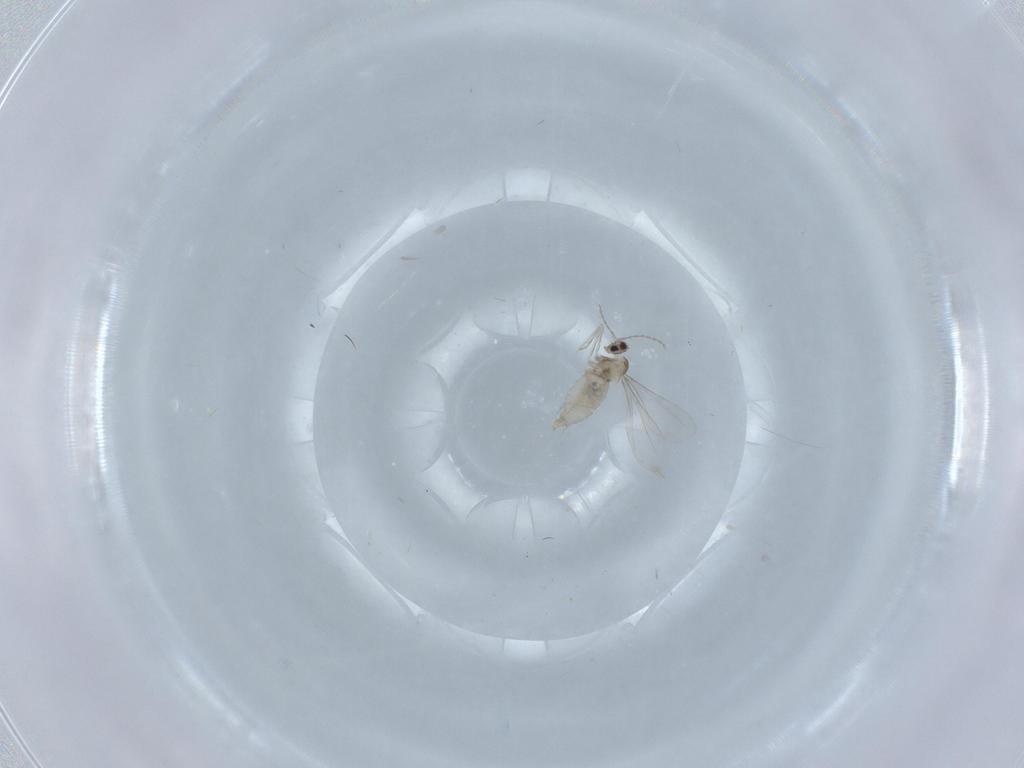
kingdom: Animalia
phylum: Arthropoda
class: Insecta
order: Diptera
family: Cecidomyiidae
